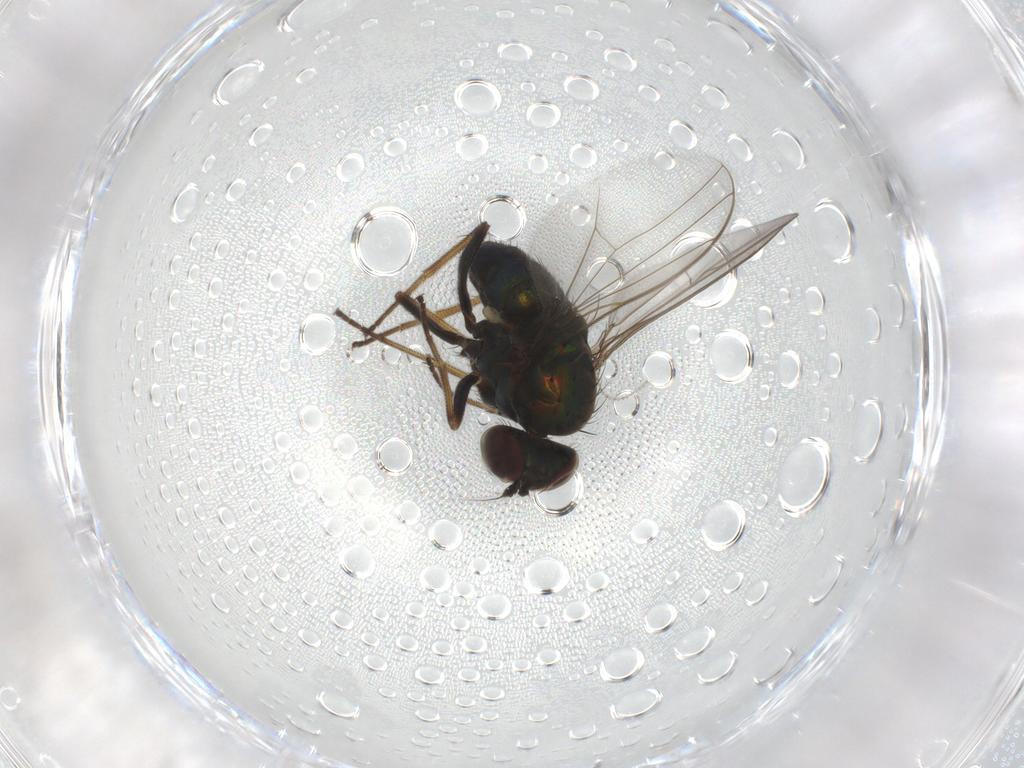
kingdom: Animalia
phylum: Arthropoda
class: Insecta
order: Diptera
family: Dolichopodidae
